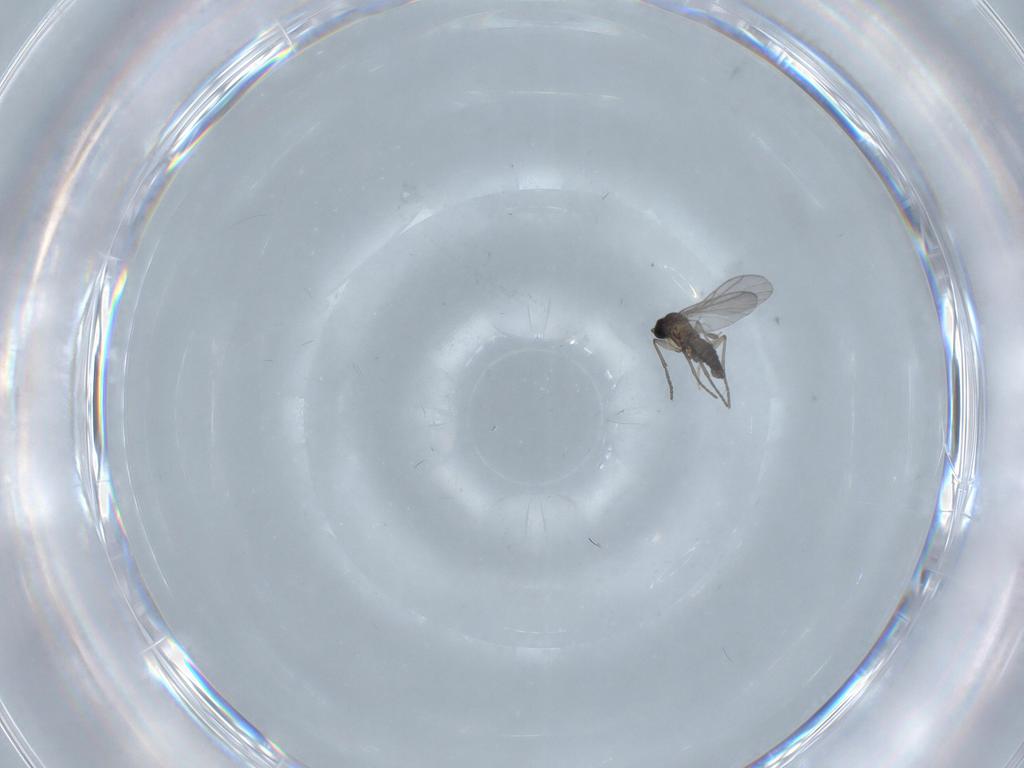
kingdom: Animalia
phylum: Arthropoda
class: Insecta
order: Diptera
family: Chironomidae
